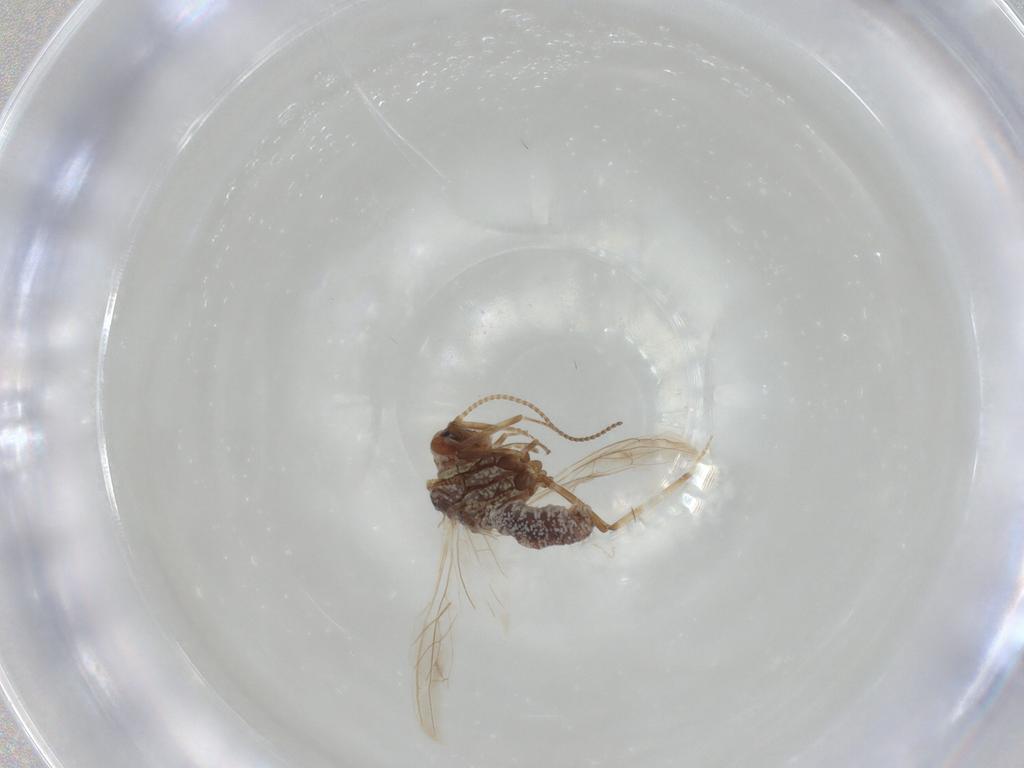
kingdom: Animalia
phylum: Arthropoda
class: Insecta
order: Neuroptera
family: Coniopterygidae
